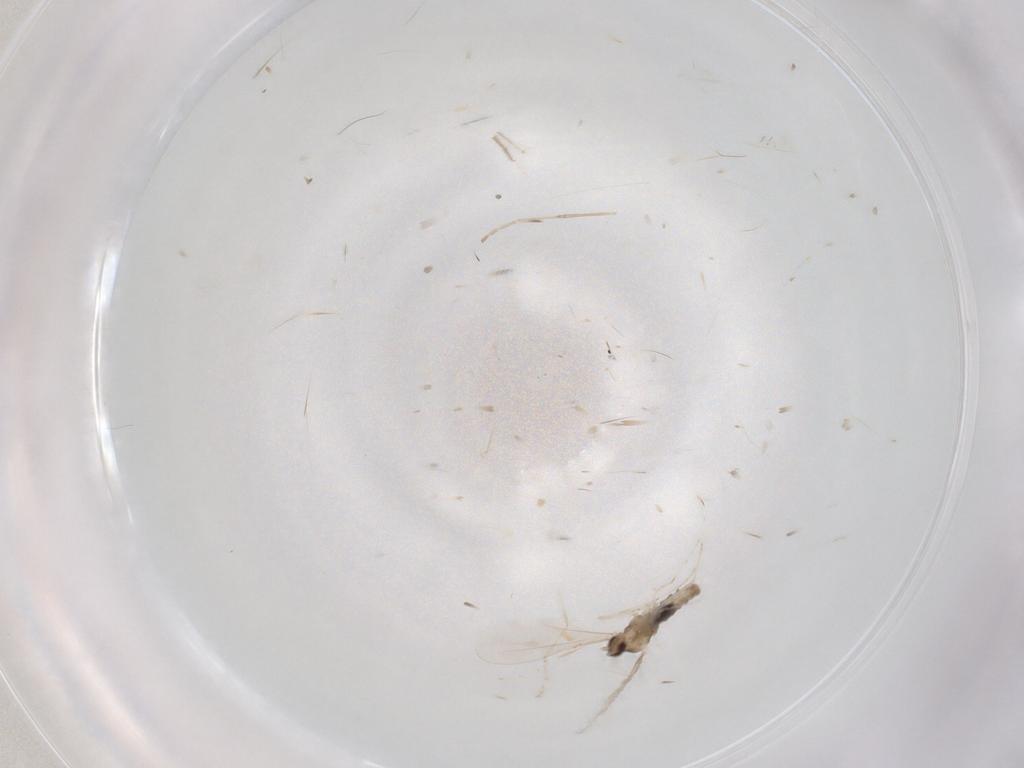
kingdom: Animalia
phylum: Arthropoda
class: Insecta
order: Diptera
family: Cecidomyiidae
